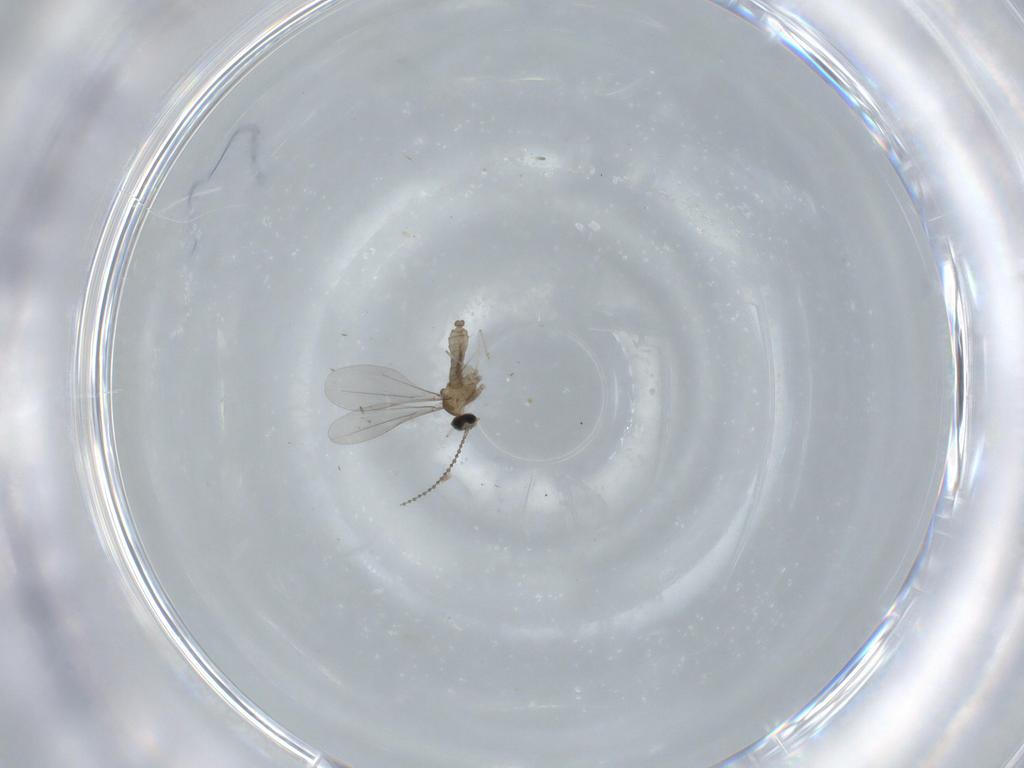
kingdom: Animalia
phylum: Arthropoda
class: Insecta
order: Diptera
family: Cecidomyiidae
